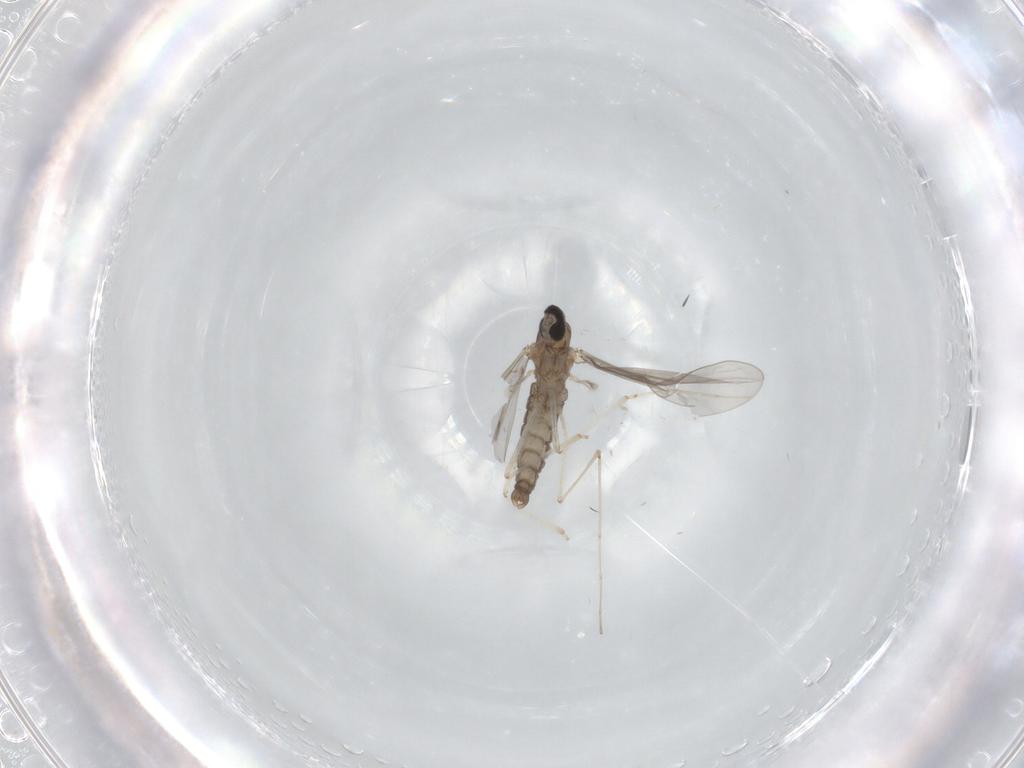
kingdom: Animalia
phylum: Arthropoda
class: Insecta
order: Diptera
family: Cecidomyiidae
